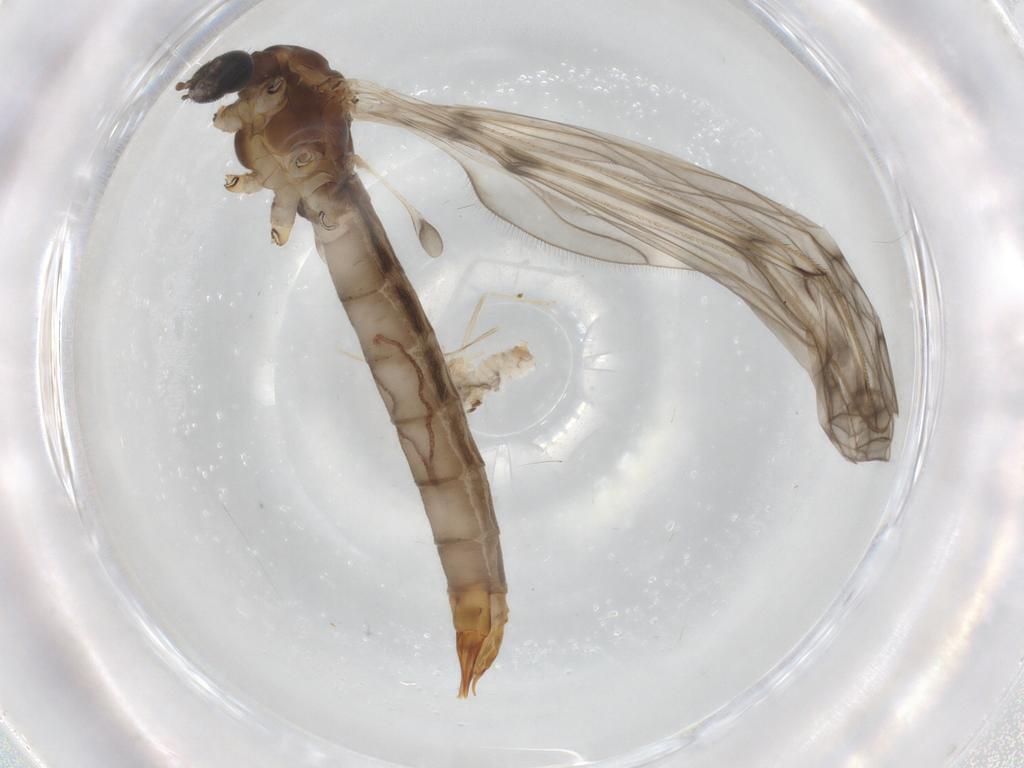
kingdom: Animalia
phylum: Arthropoda
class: Insecta
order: Diptera
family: Cecidomyiidae
